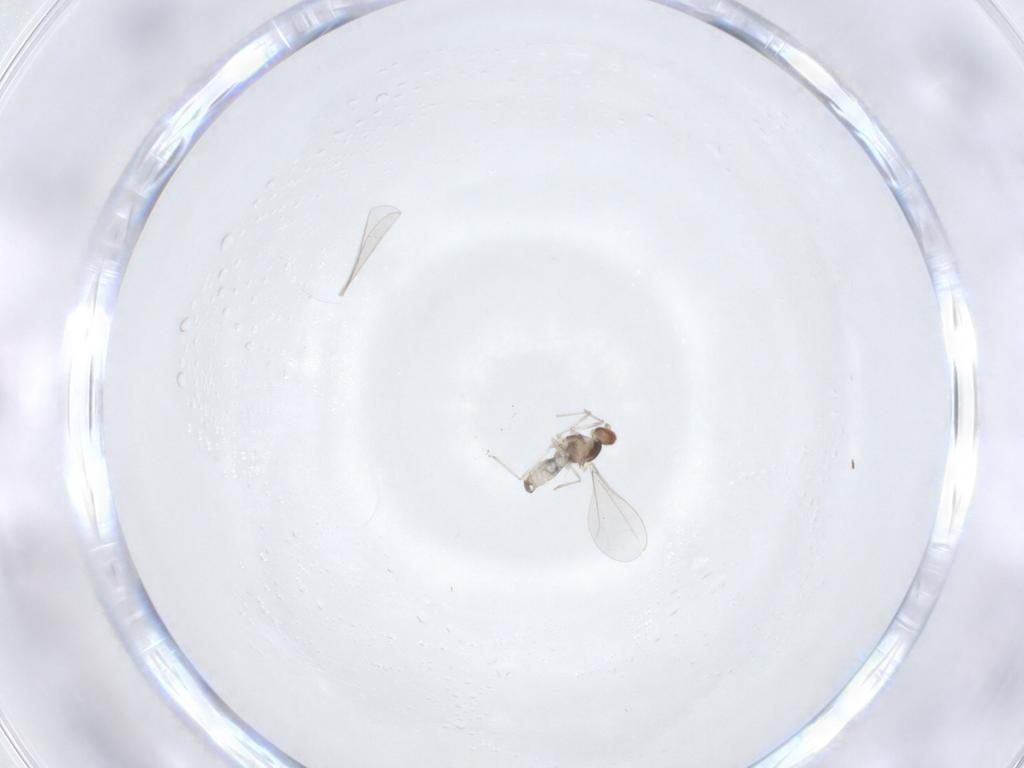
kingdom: Animalia
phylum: Arthropoda
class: Insecta
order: Diptera
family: Cecidomyiidae
